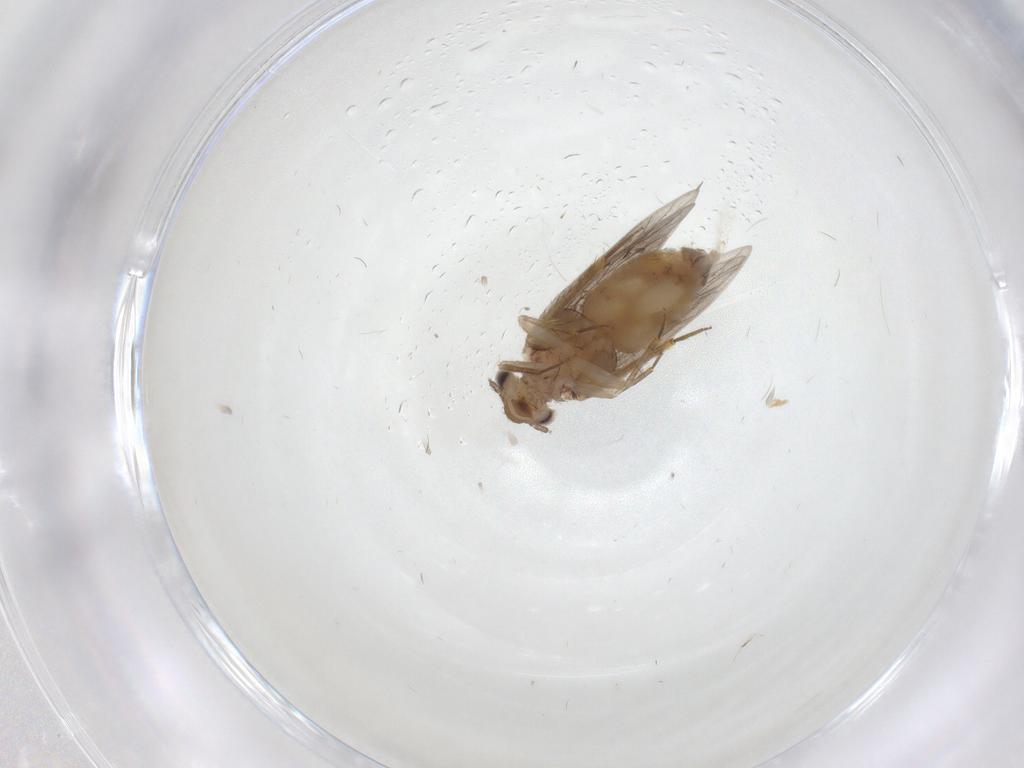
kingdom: Animalia
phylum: Arthropoda
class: Insecta
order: Psocodea
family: Lepidopsocidae
